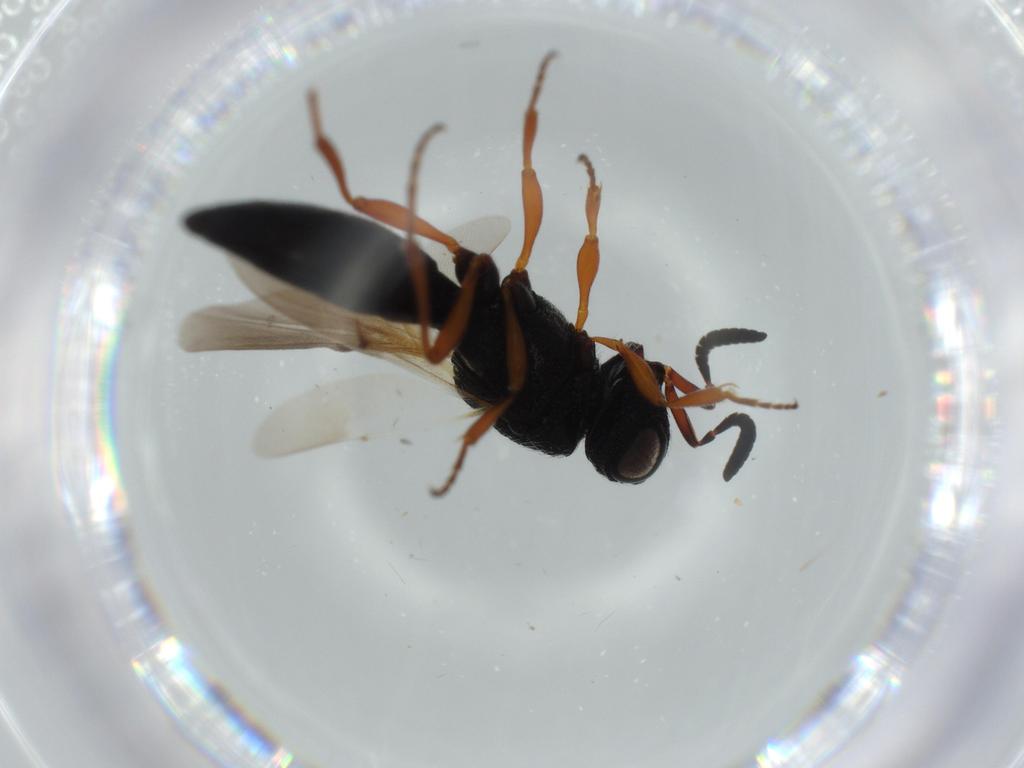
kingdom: Animalia
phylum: Arthropoda
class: Insecta
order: Hymenoptera
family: Scelionidae
